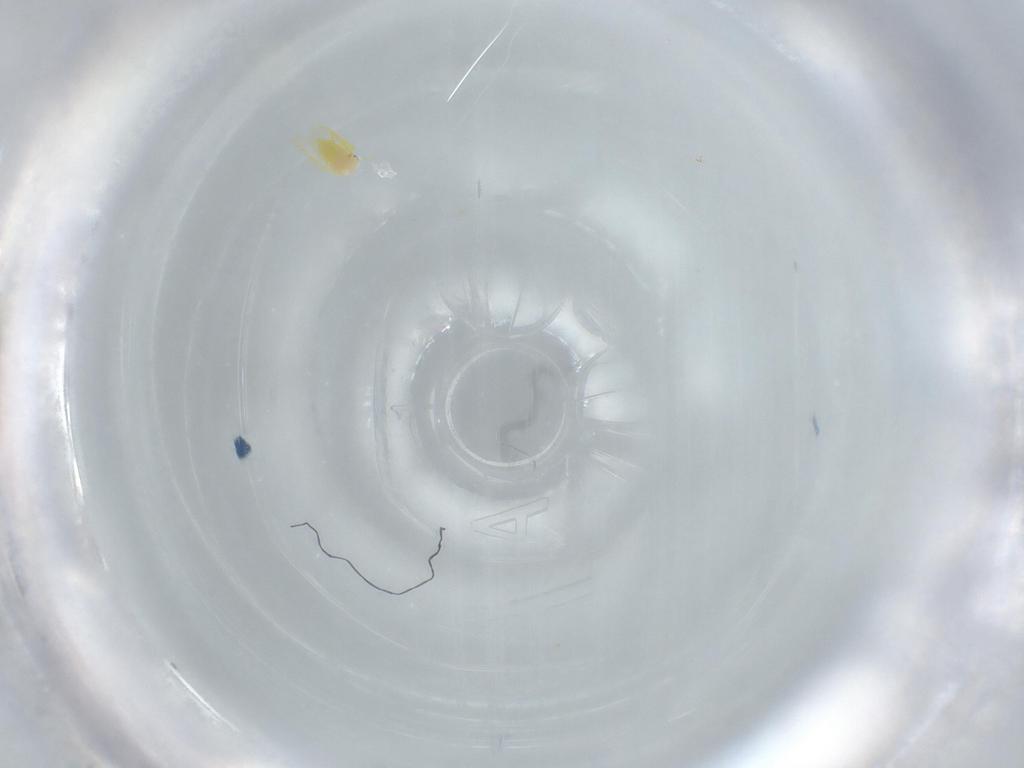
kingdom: Animalia
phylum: Arthropoda
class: Insecta
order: Hemiptera
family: Aleyrodidae
